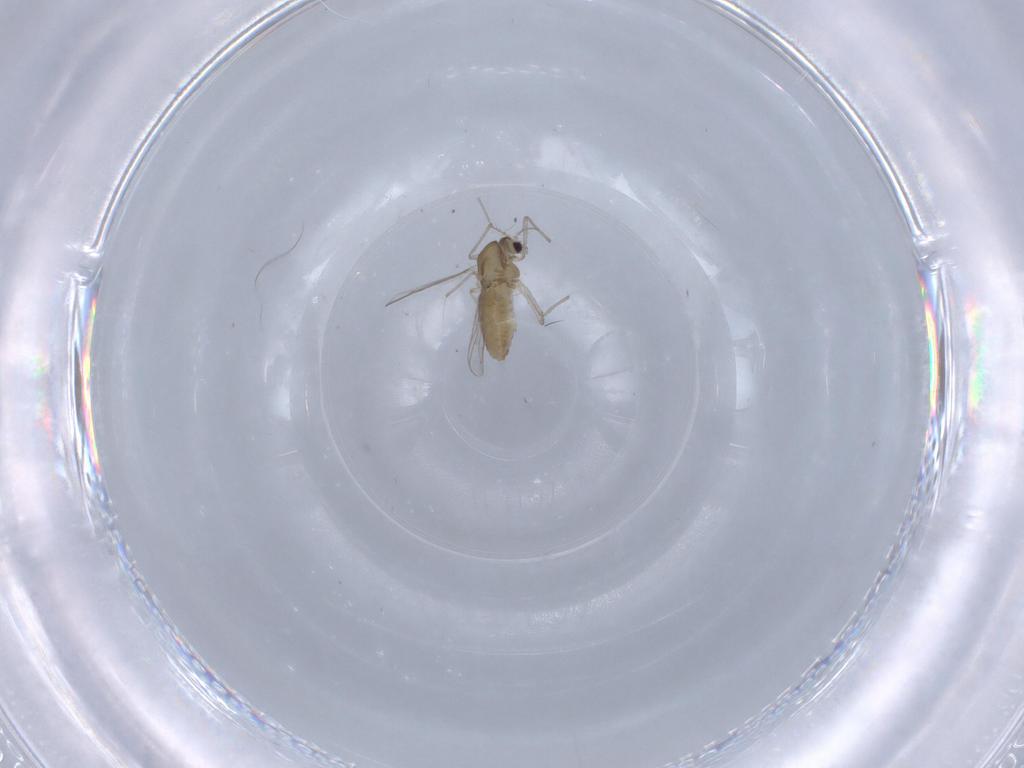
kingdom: Animalia
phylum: Arthropoda
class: Insecta
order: Diptera
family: Chironomidae
